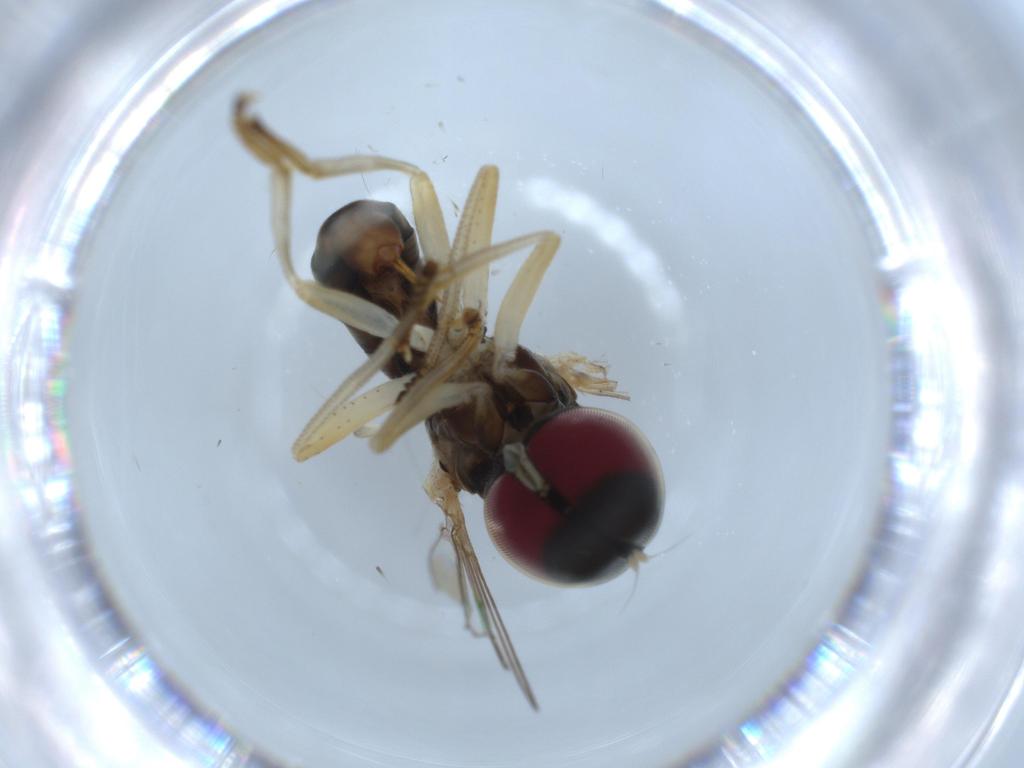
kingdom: Animalia
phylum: Arthropoda
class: Insecta
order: Diptera
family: Pipunculidae
